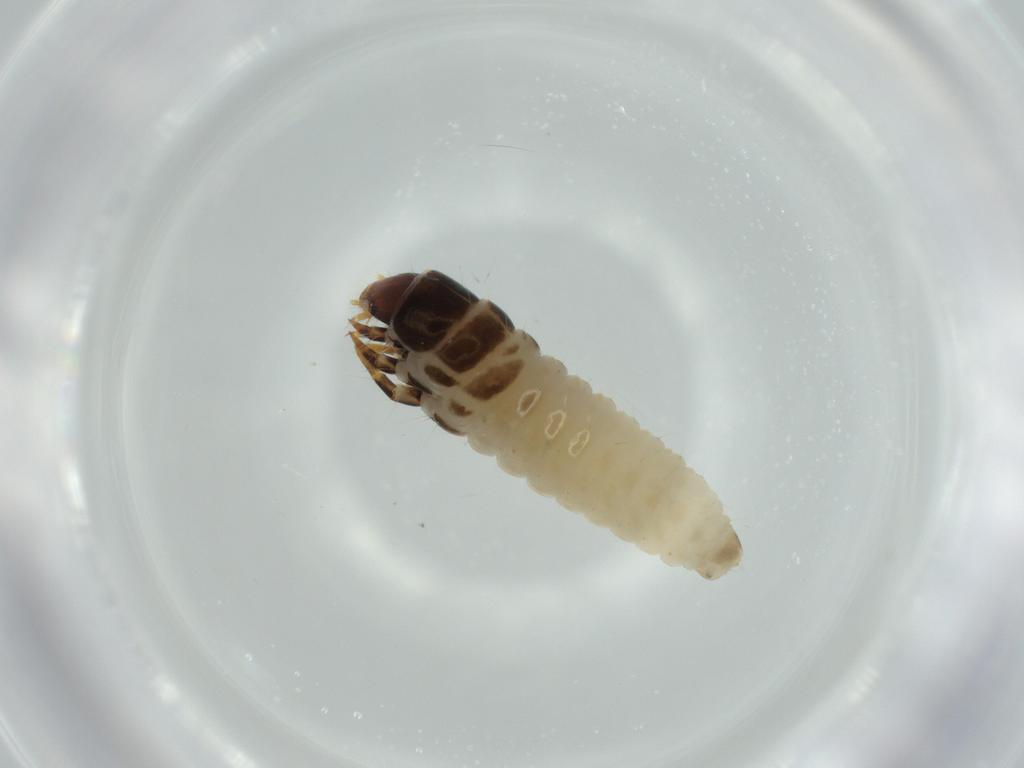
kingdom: Animalia
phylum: Arthropoda
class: Insecta
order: Lepidoptera
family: Psychidae
